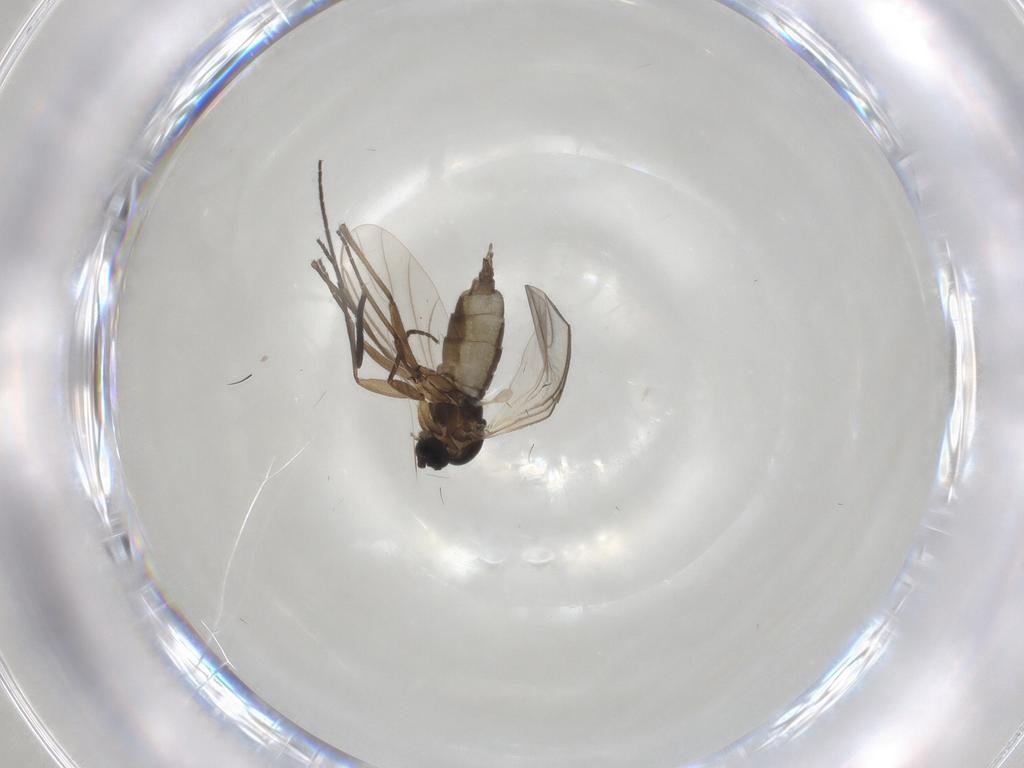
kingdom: Animalia
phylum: Arthropoda
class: Insecta
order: Diptera
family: Chironomidae
